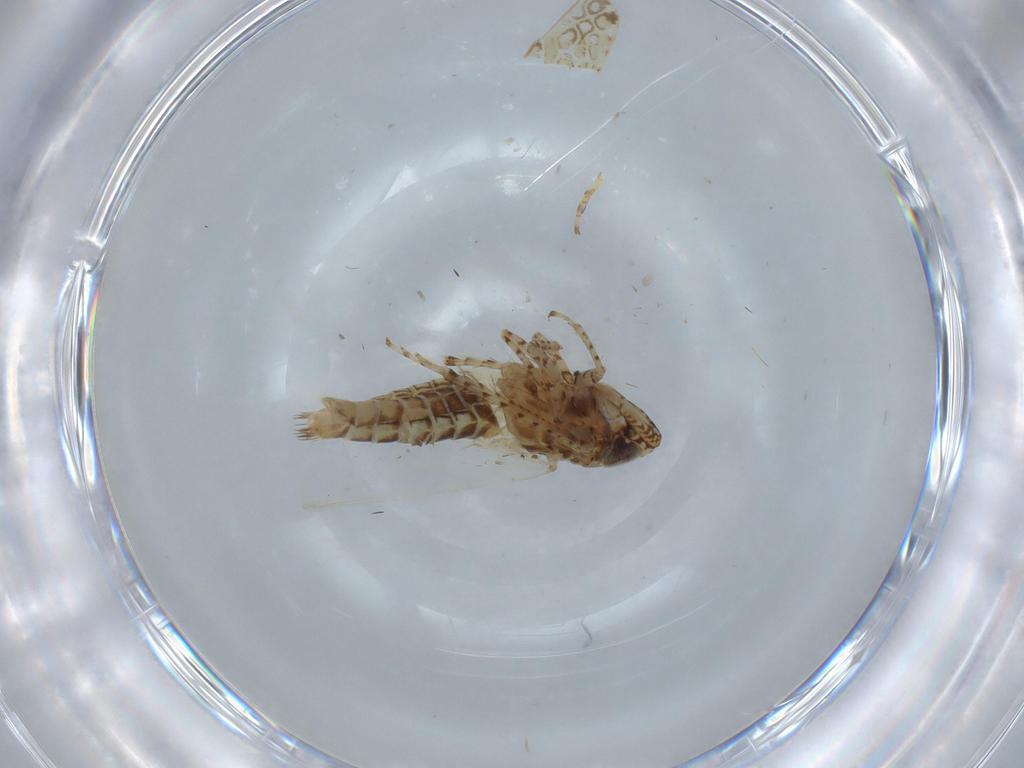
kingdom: Animalia
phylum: Arthropoda
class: Insecta
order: Hemiptera
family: Cicadellidae
